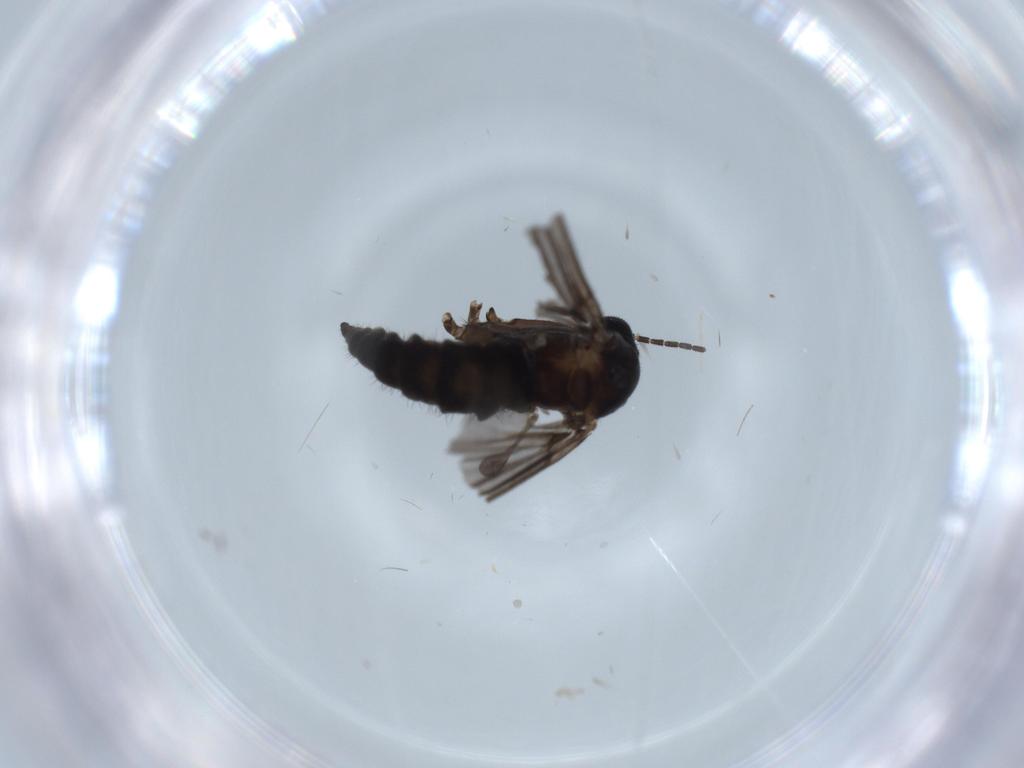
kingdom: Animalia
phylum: Arthropoda
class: Insecta
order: Diptera
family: Sciaridae
